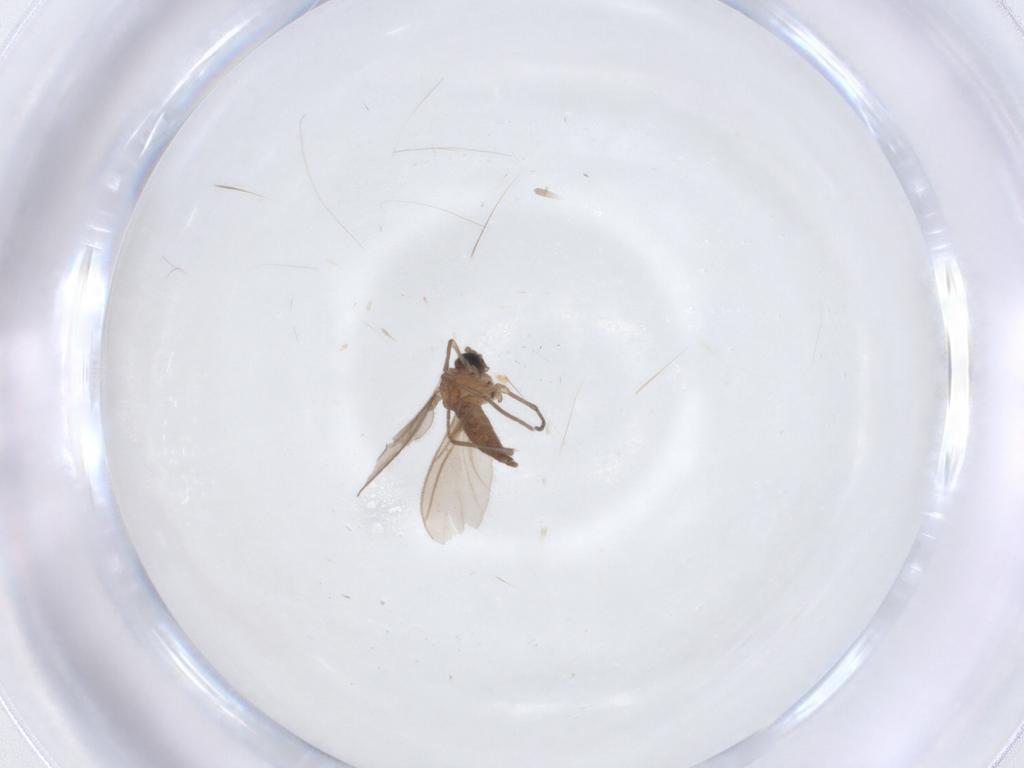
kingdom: Animalia
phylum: Arthropoda
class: Insecta
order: Diptera
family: Sciaridae
